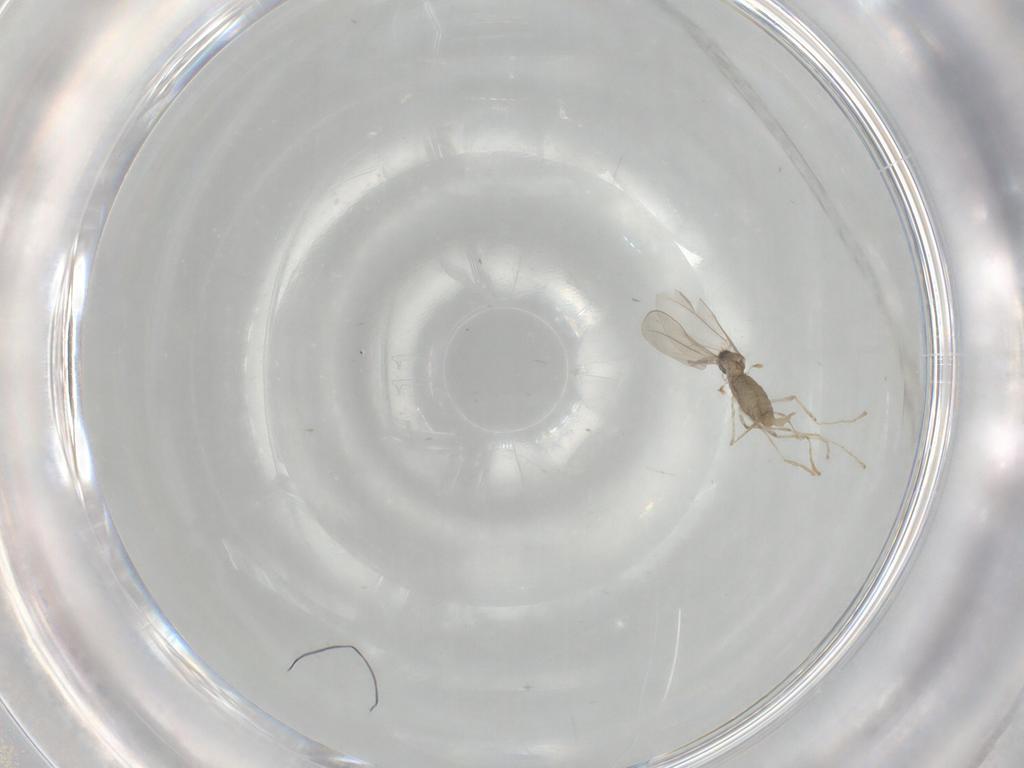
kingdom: Animalia
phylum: Arthropoda
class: Insecta
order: Diptera
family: Cecidomyiidae
